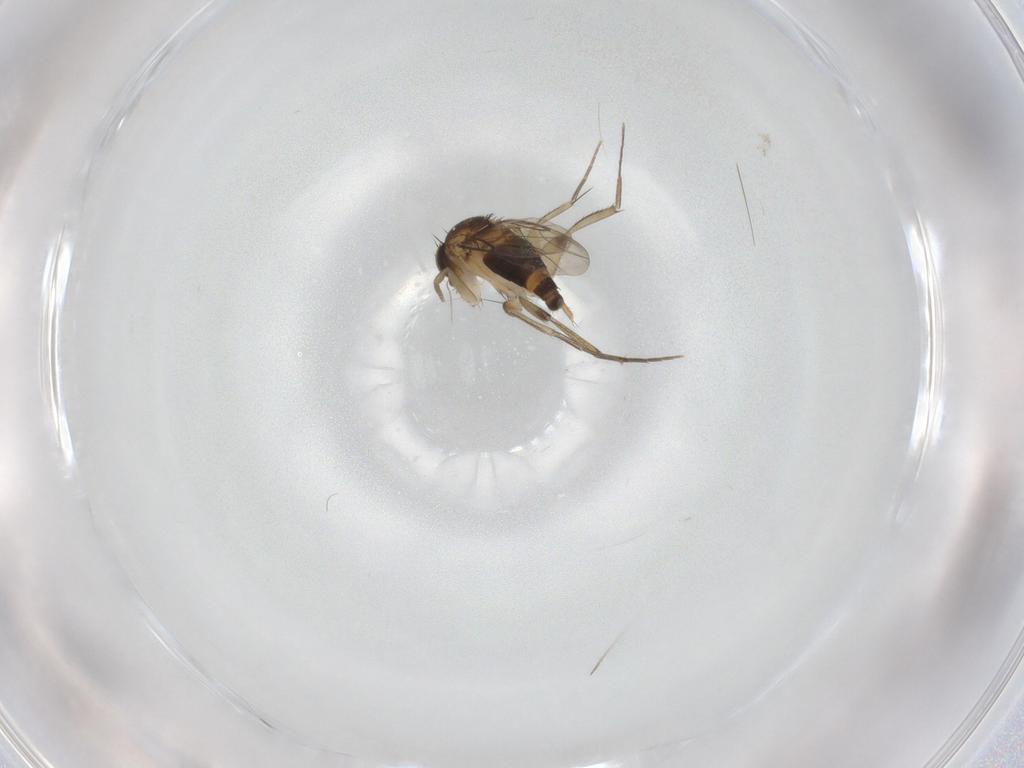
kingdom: Animalia
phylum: Arthropoda
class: Insecta
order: Diptera
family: Phoridae
